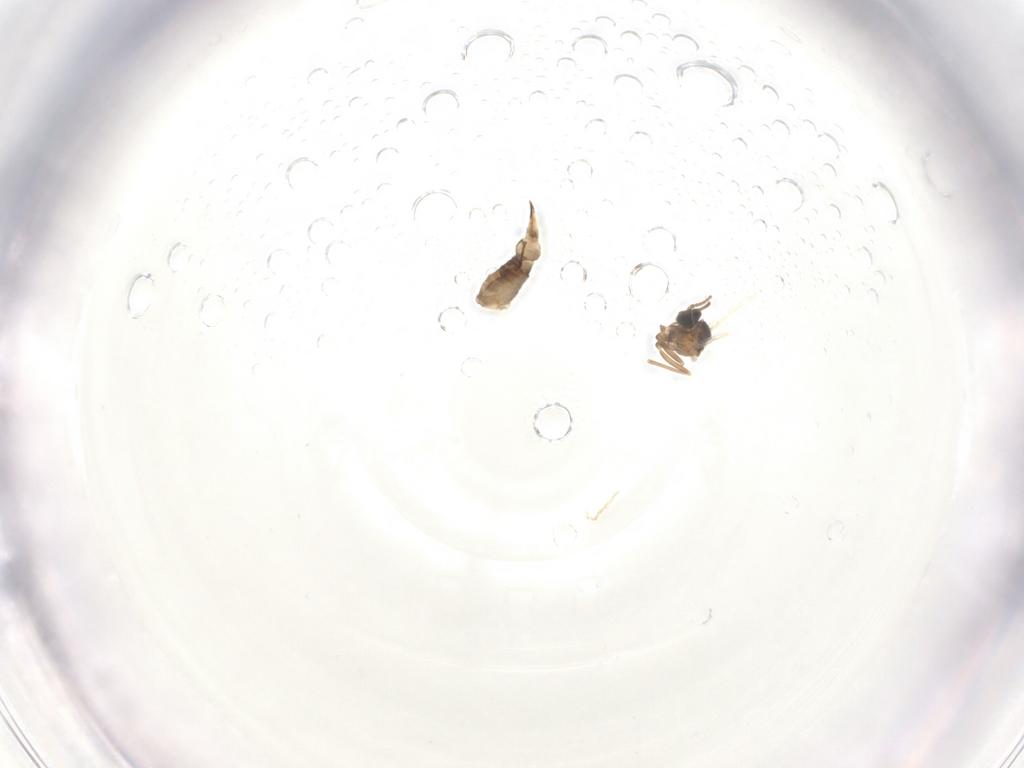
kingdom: Animalia
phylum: Arthropoda
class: Insecta
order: Diptera
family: Cecidomyiidae
